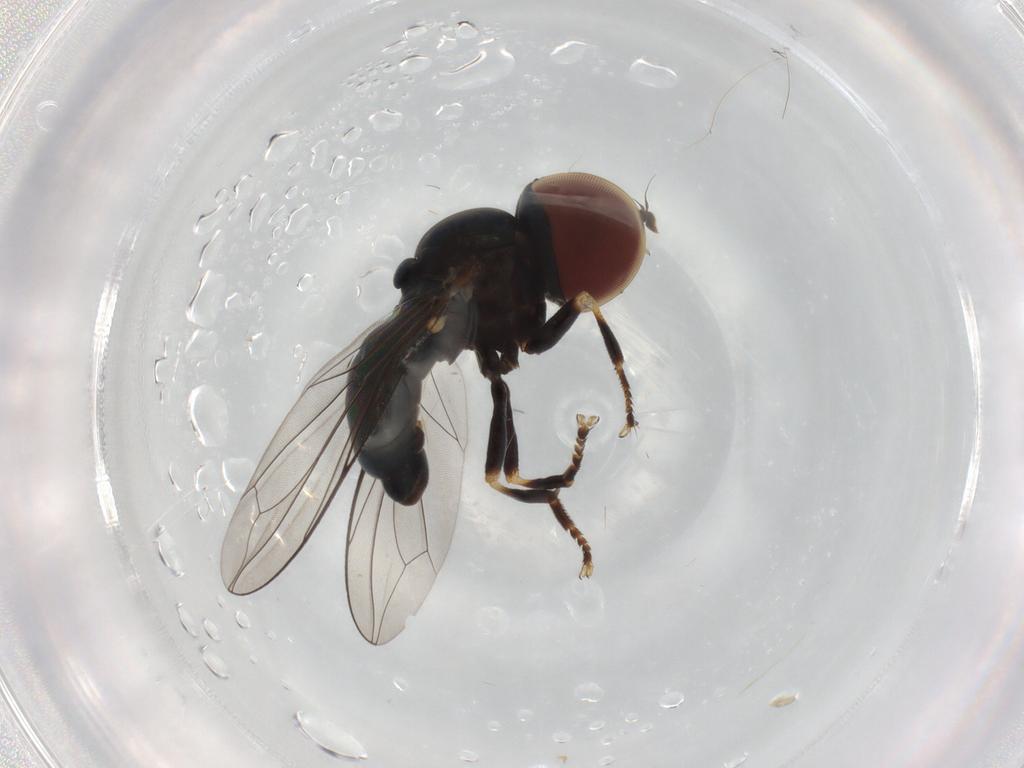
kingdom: Animalia
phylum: Arthropoda
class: Insecta
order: Diptera
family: Pipunculidae
